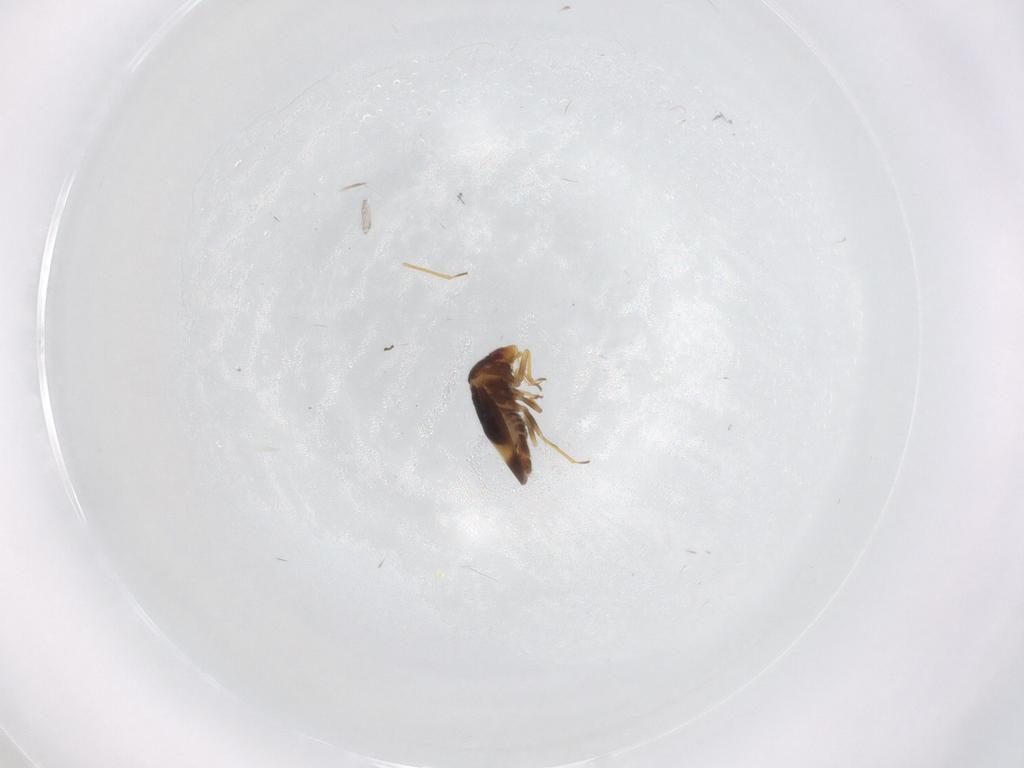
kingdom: Animalia
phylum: Arthropoda
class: Insecta
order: Hemiptera
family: Schizopteridae
